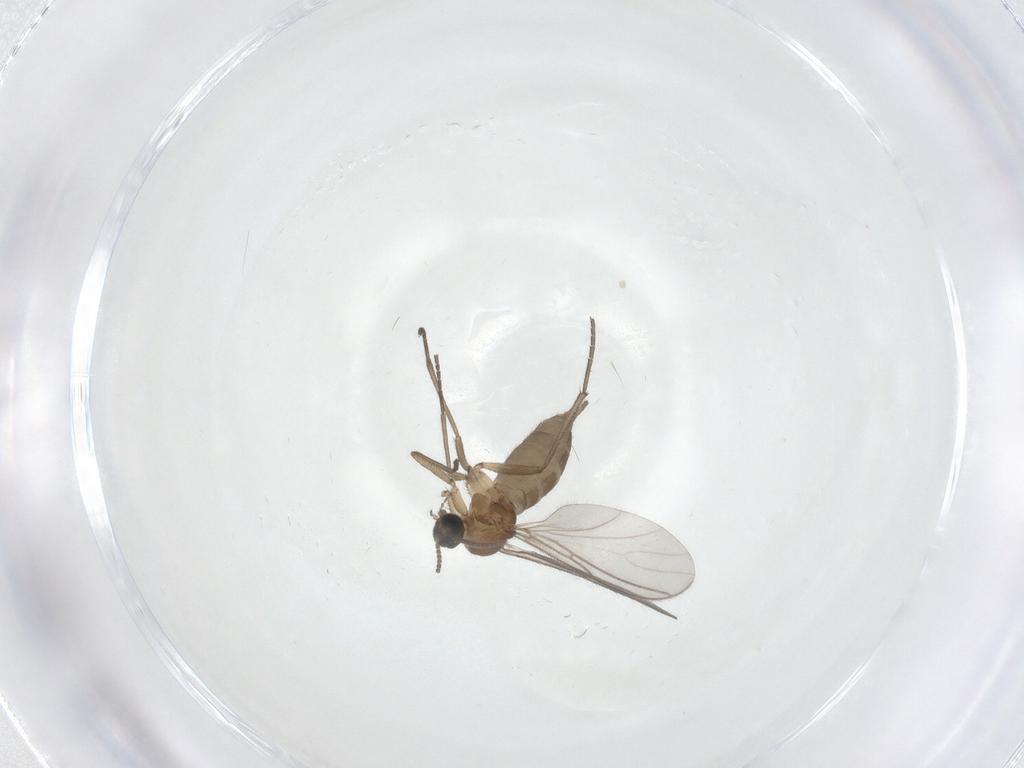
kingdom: Animalia
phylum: Arthropoda
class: Insecta
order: Diptera
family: Sciaridae
